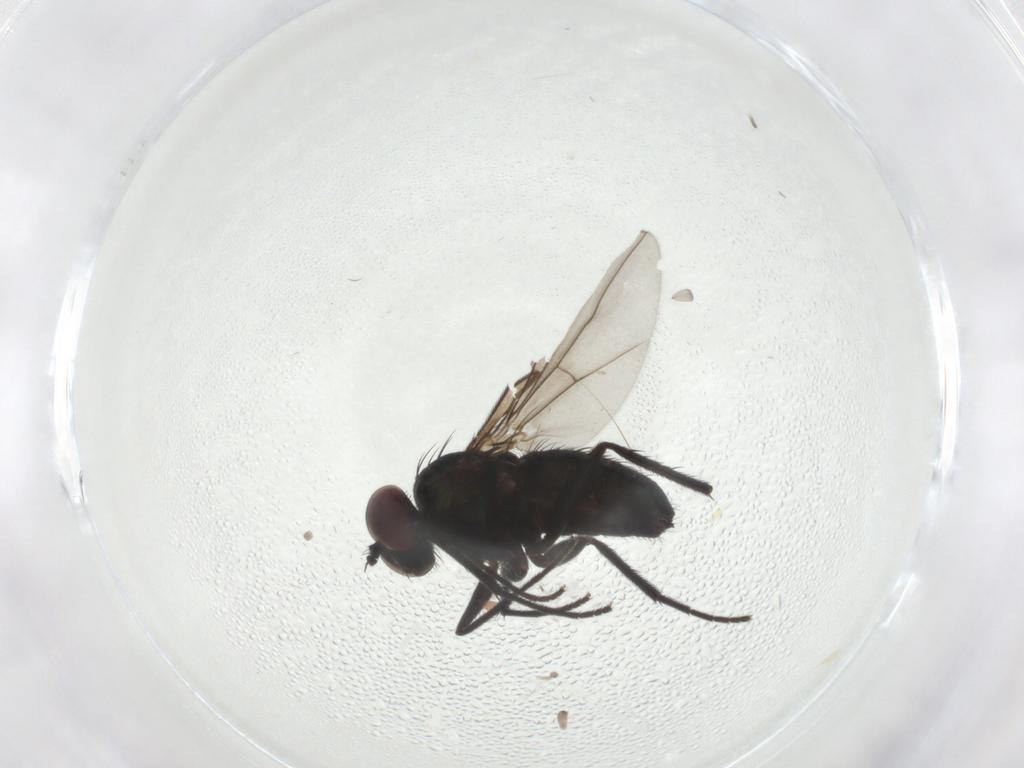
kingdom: Animalia
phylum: Arthropoda
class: Insecta
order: Diptera
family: Dolichopodidae
